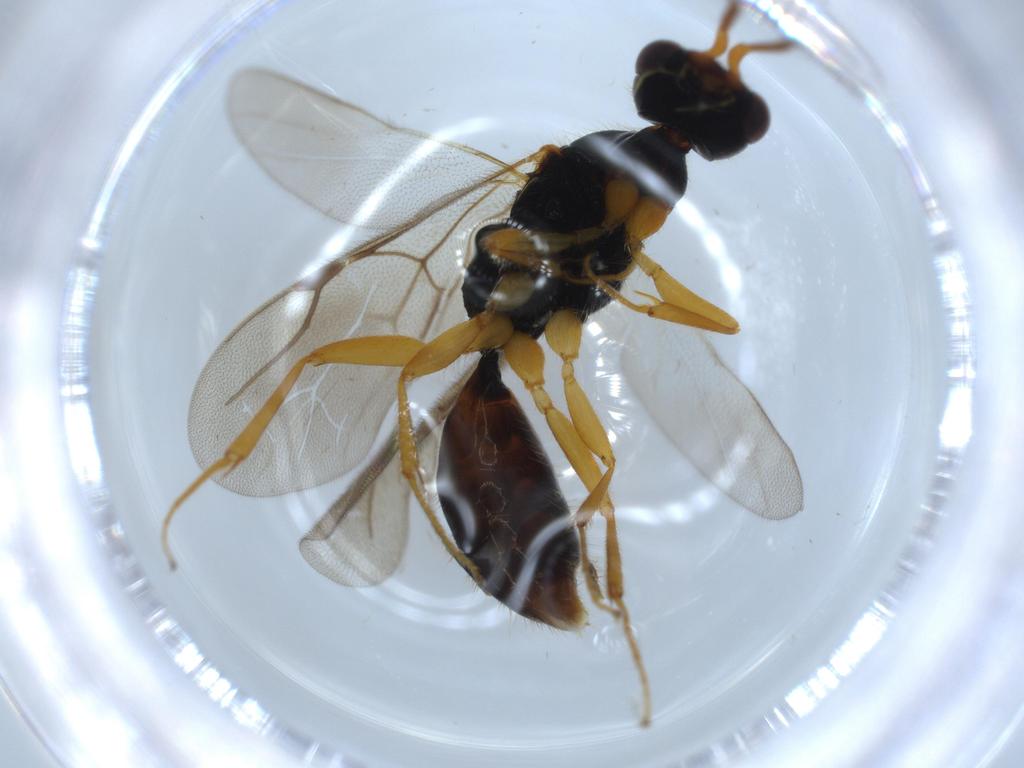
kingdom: Animalia
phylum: Arthropoda
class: Insecta
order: Hymenoptera
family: Bethylidae
